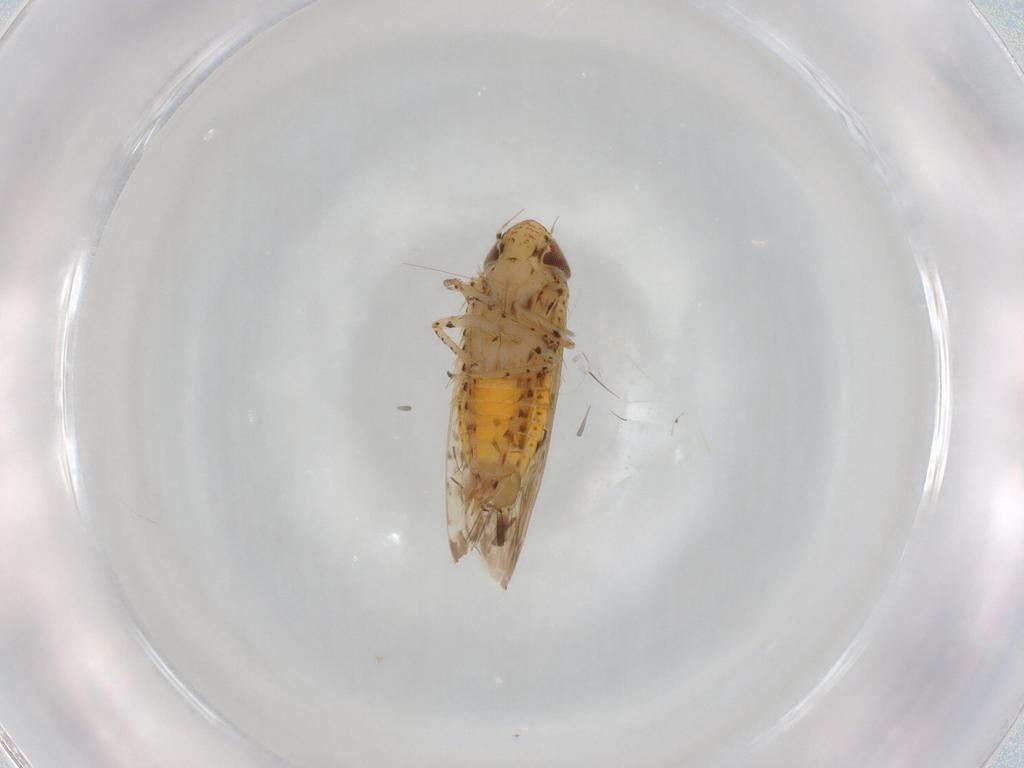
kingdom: Animalia
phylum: Arthropoda
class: Insecta
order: Hemiptera
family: Cicadellidae
